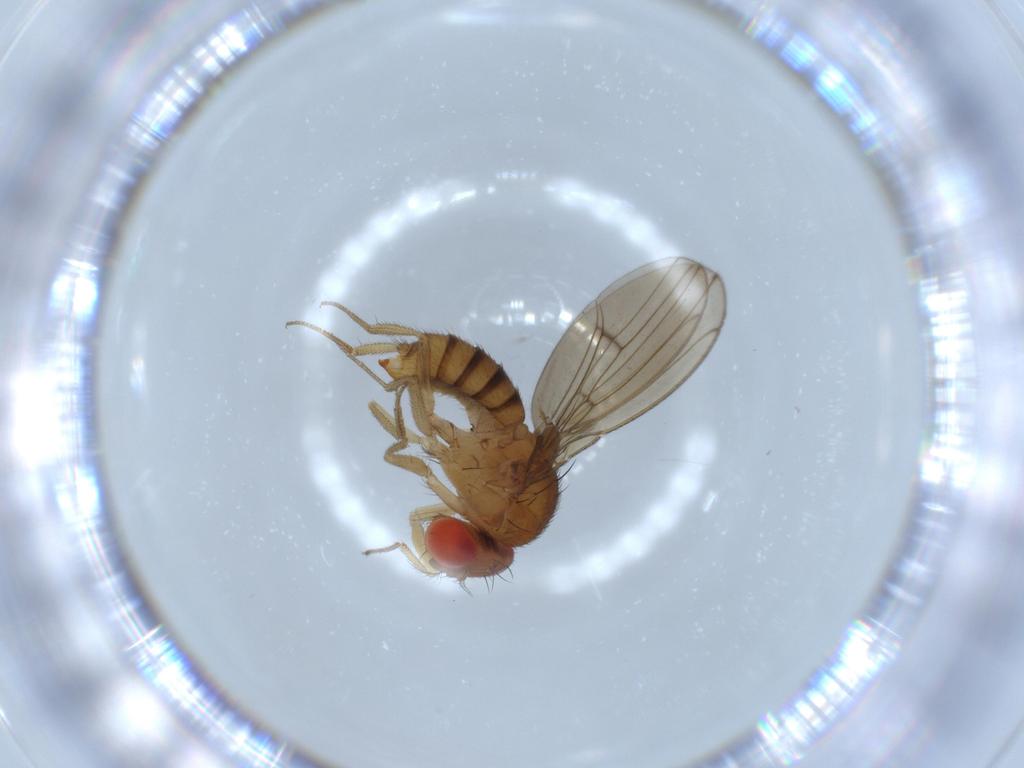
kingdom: Animalia
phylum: Arthropoda
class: Insecta
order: Diptera
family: Drosophilidae
